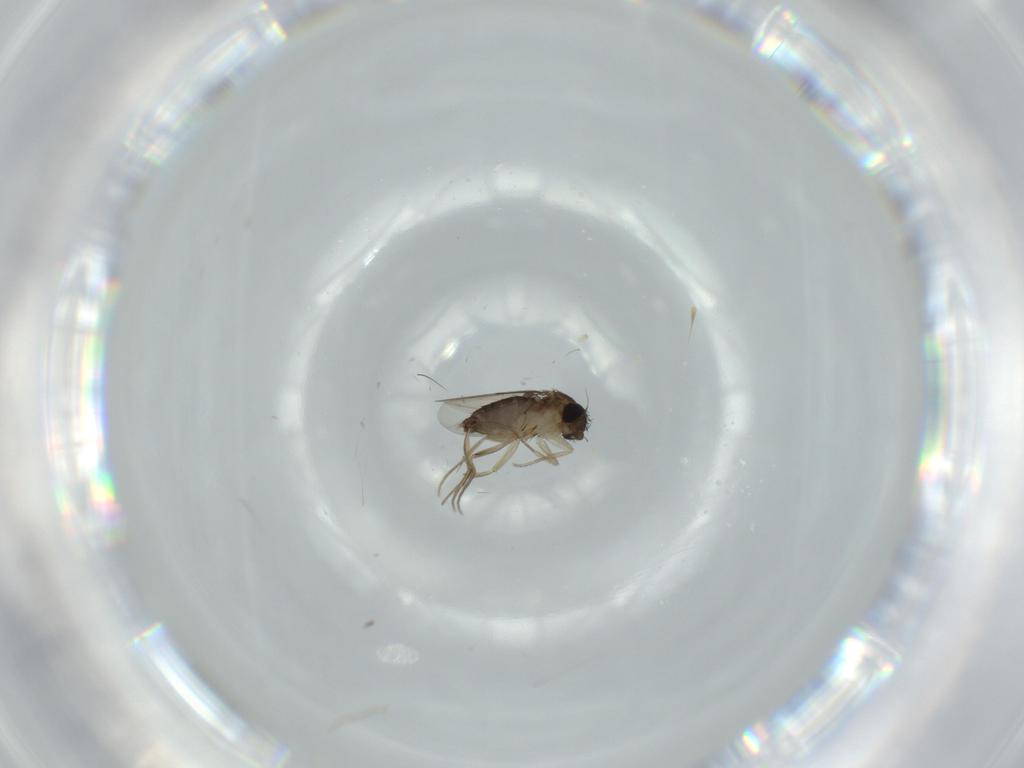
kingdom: Animalia
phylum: Arthropoda
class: Insecta
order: Diptera
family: Phoridae
